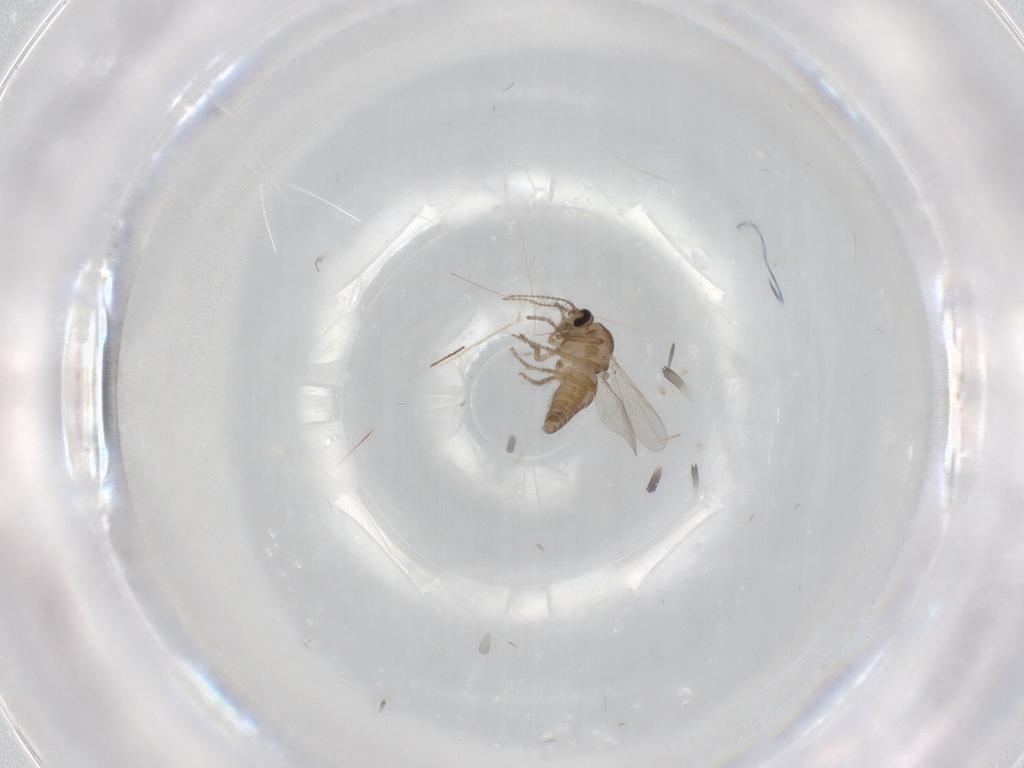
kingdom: Animalia
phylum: Arthropoda
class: Insecta
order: Diptera
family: Ceratopogonidae
